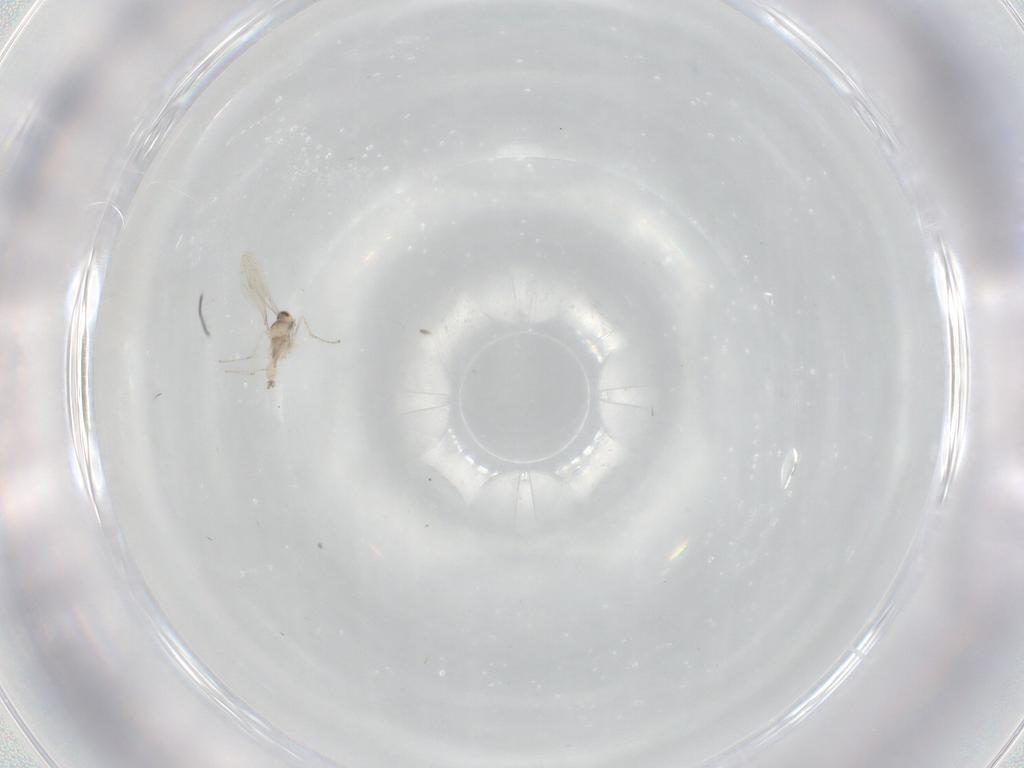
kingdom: Animalia
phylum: Arthropoda
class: Insecta
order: Diptera
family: Cecidomyiidae
